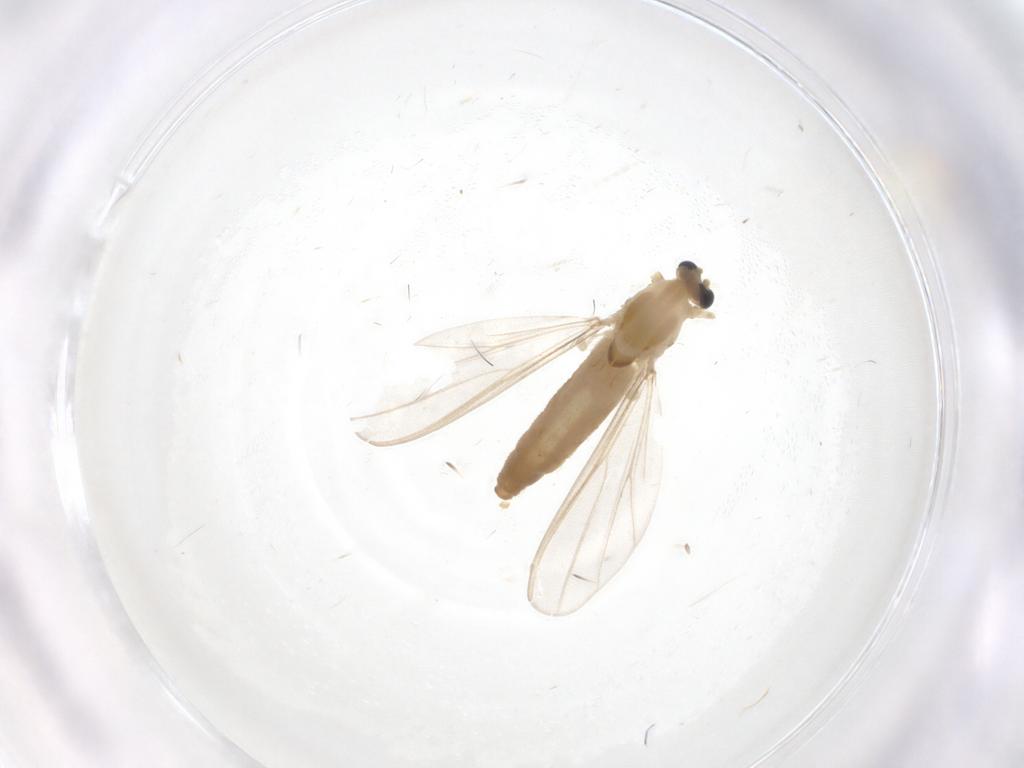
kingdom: Animalia
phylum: Arthropoda
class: Insecta
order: Diptera
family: Chironomidae
